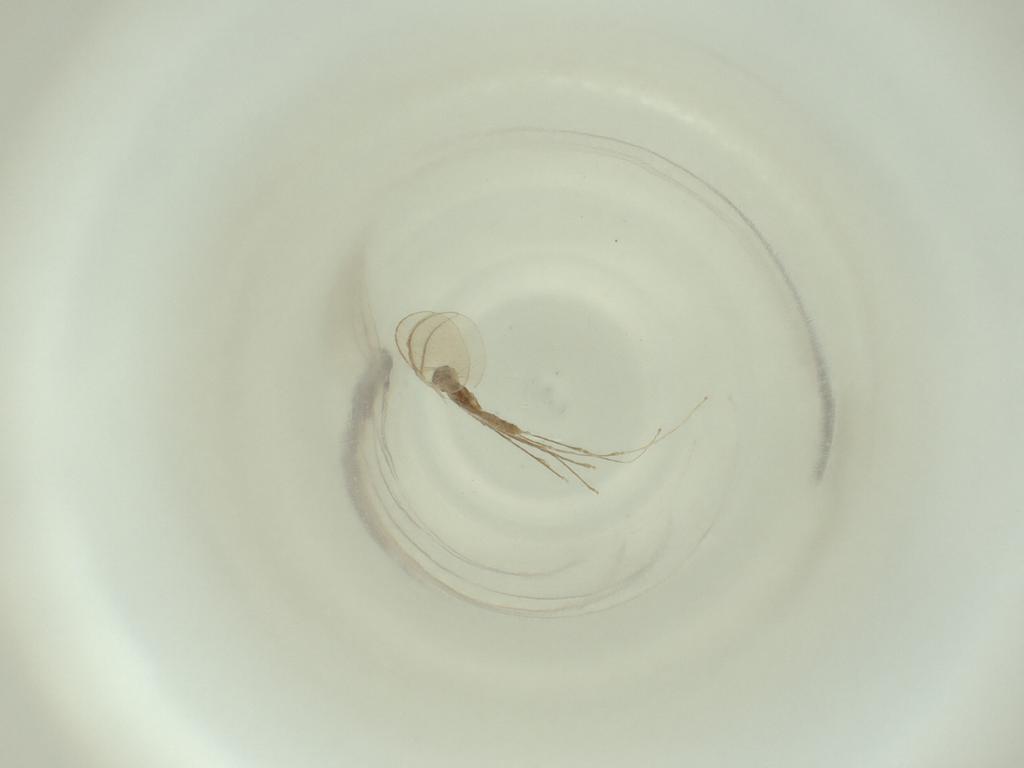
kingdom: Animalia
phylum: Arthropoda
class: Insecta
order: Diptera
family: Cecidomyiidae
